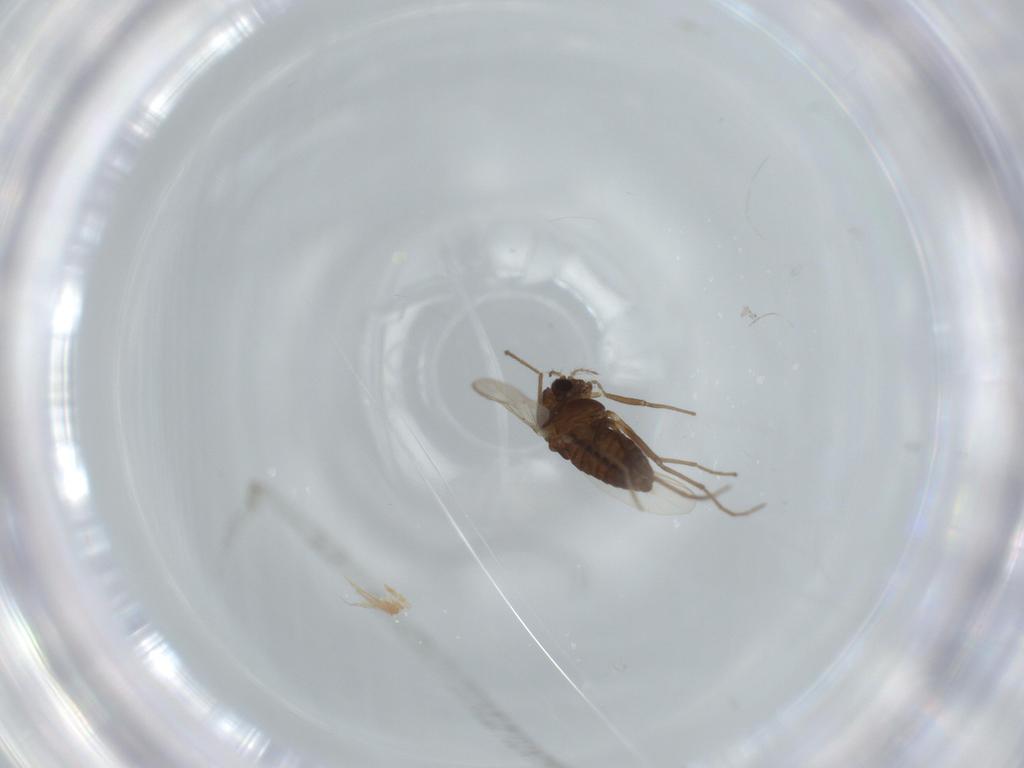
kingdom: Animalia
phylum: Arthropoda
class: Insecta
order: Diptera
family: Chironomidae
